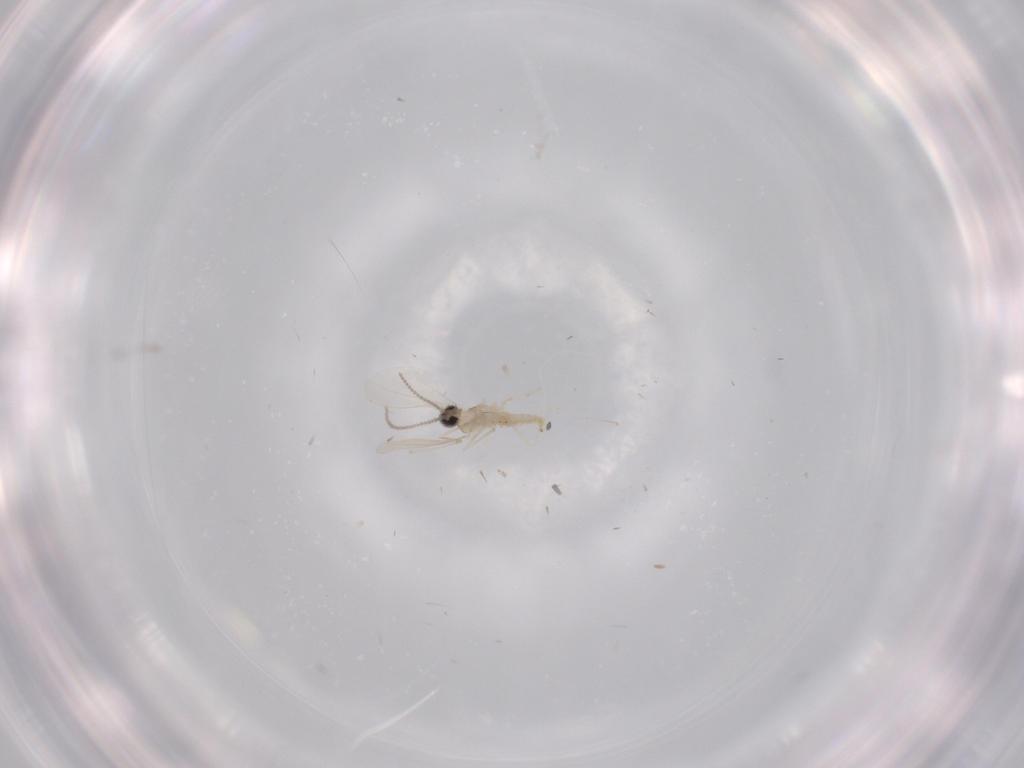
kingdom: Animalia
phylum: Arthropoda
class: Insecta
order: Diptera
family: Cecidomyiidae
